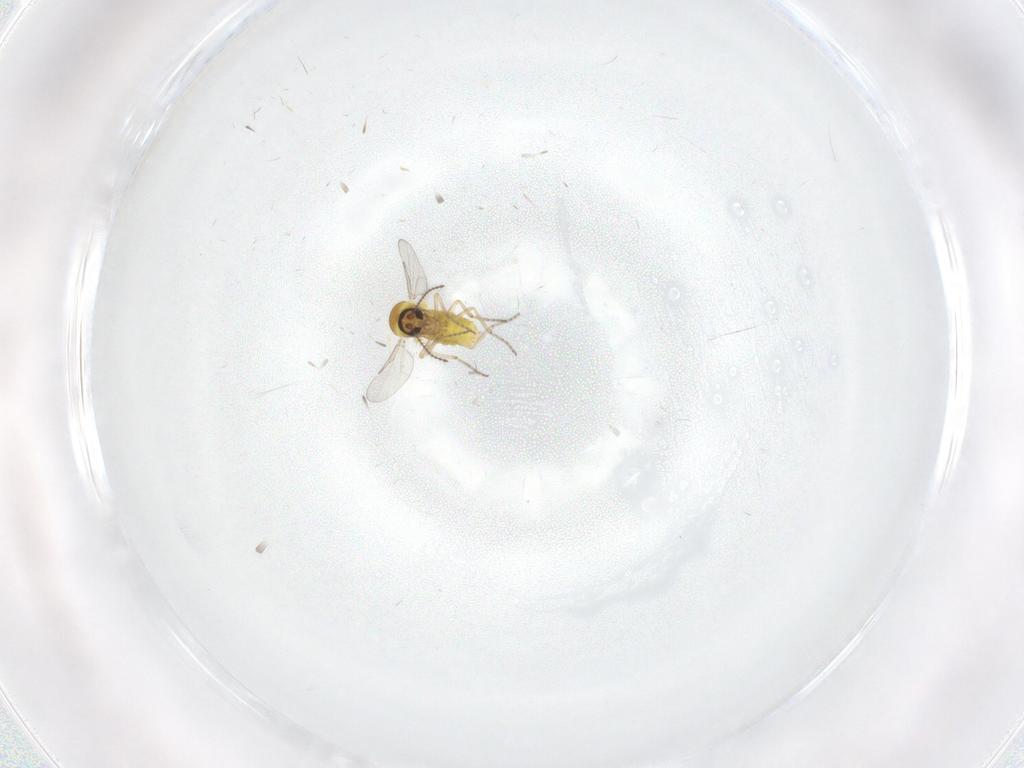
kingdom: Animalia
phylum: Arthropoda
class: Insecta
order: Diptera
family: Ceratopogonidae
